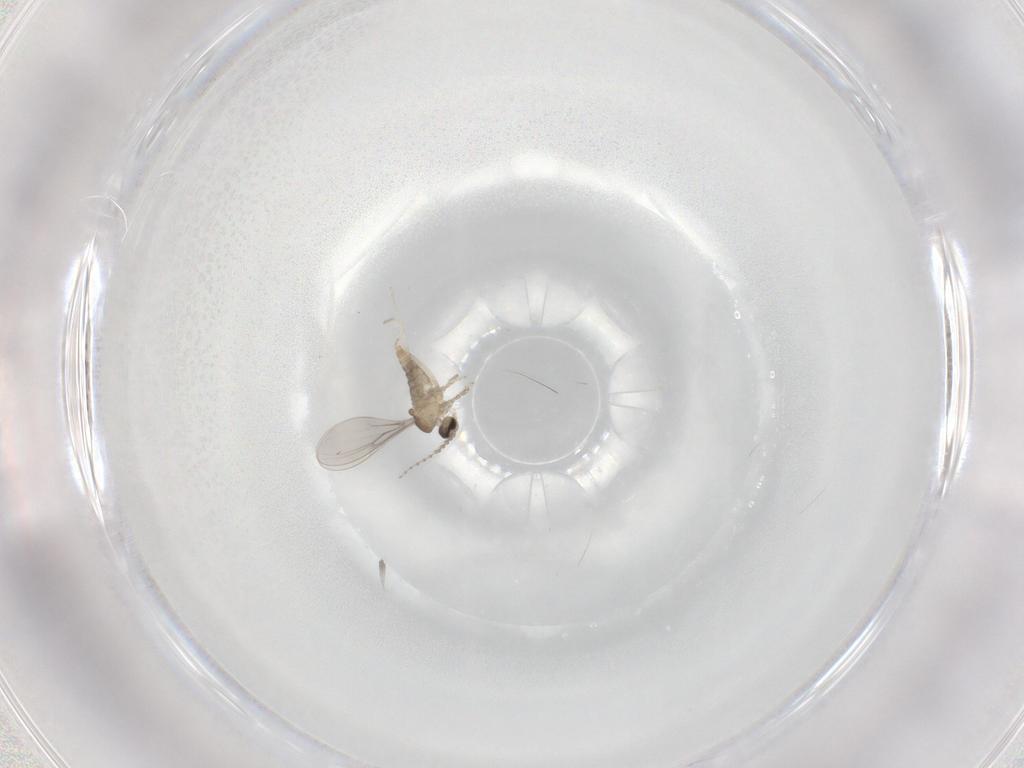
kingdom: Animalia
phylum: Arthropoda
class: Insecta
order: Diptera
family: Cecidomyiidae
